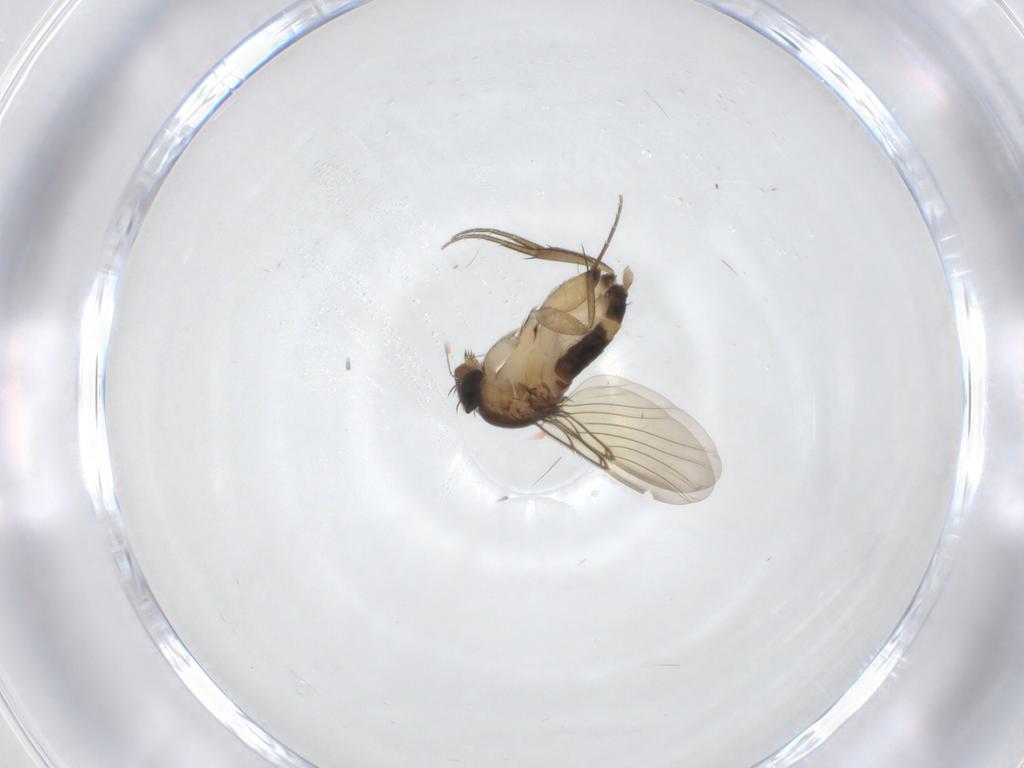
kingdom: Animalia
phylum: Arthropoda
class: Insecta
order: Diptera
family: Phoridae
